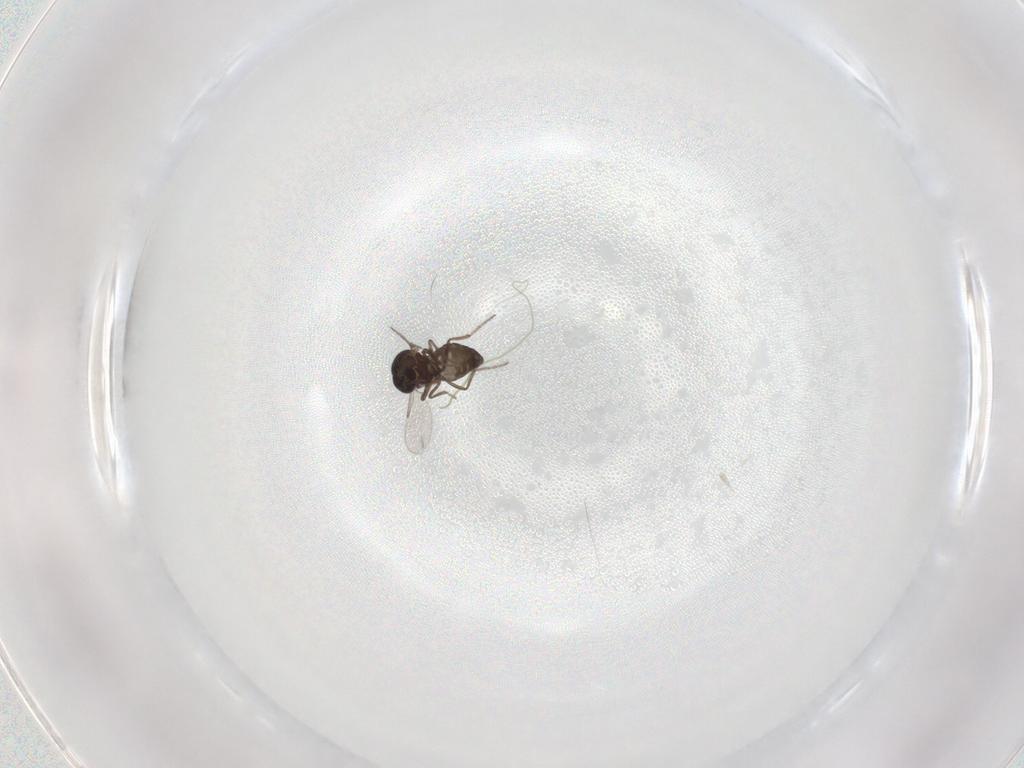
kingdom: Animalia
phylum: Arthropoda
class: Insecta
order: Diptera
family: Ceratopogonidae
